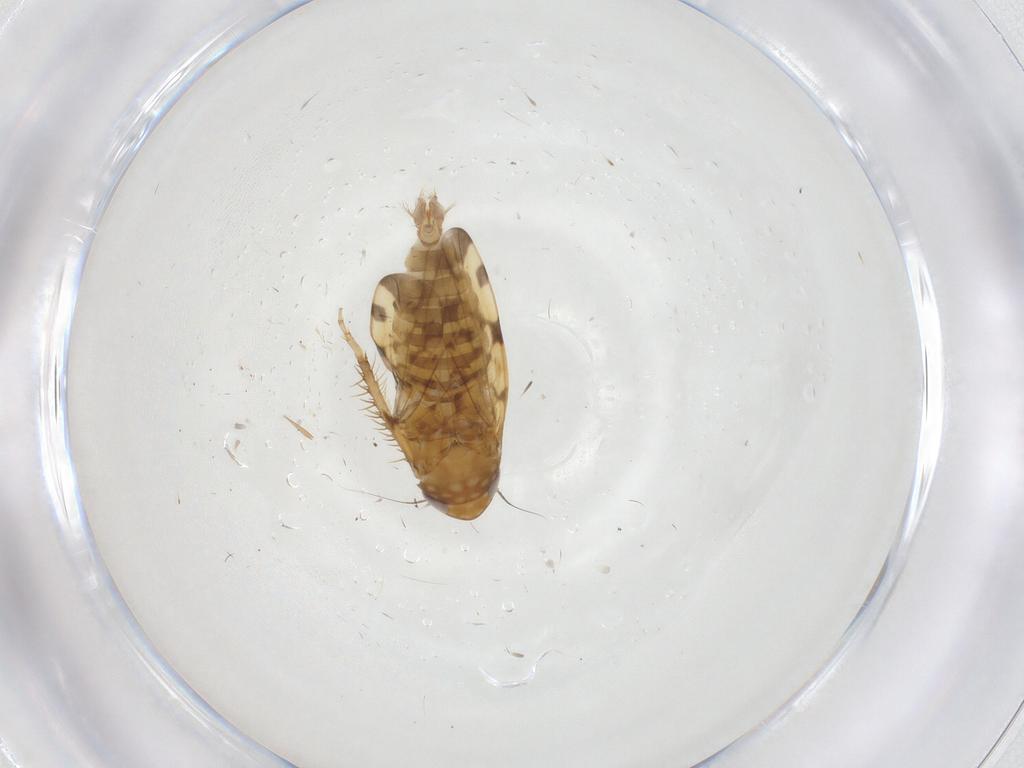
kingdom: Animalia
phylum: Arthropoda
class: Insecta
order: Hemiptera
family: Cicadellidae
